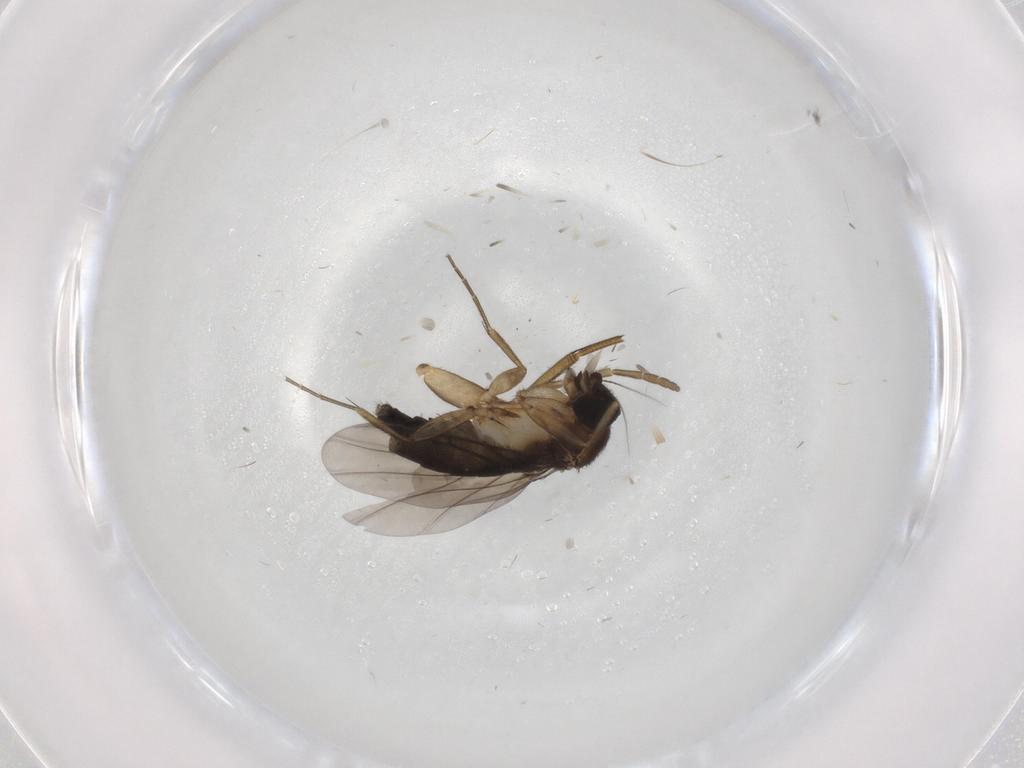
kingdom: Animalia
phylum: Arthropoda
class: Insecta
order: Diptera
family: Phoridae
